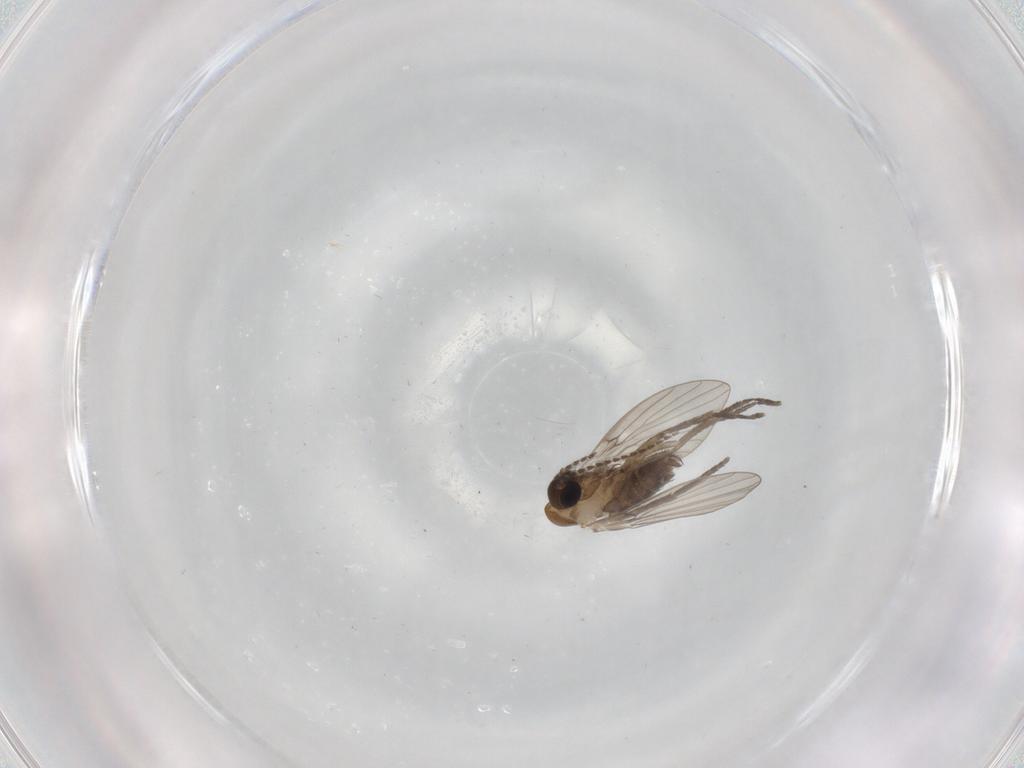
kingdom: Animalia
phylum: Arthropoda
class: Insecta
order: Diptera
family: Psychodidae
